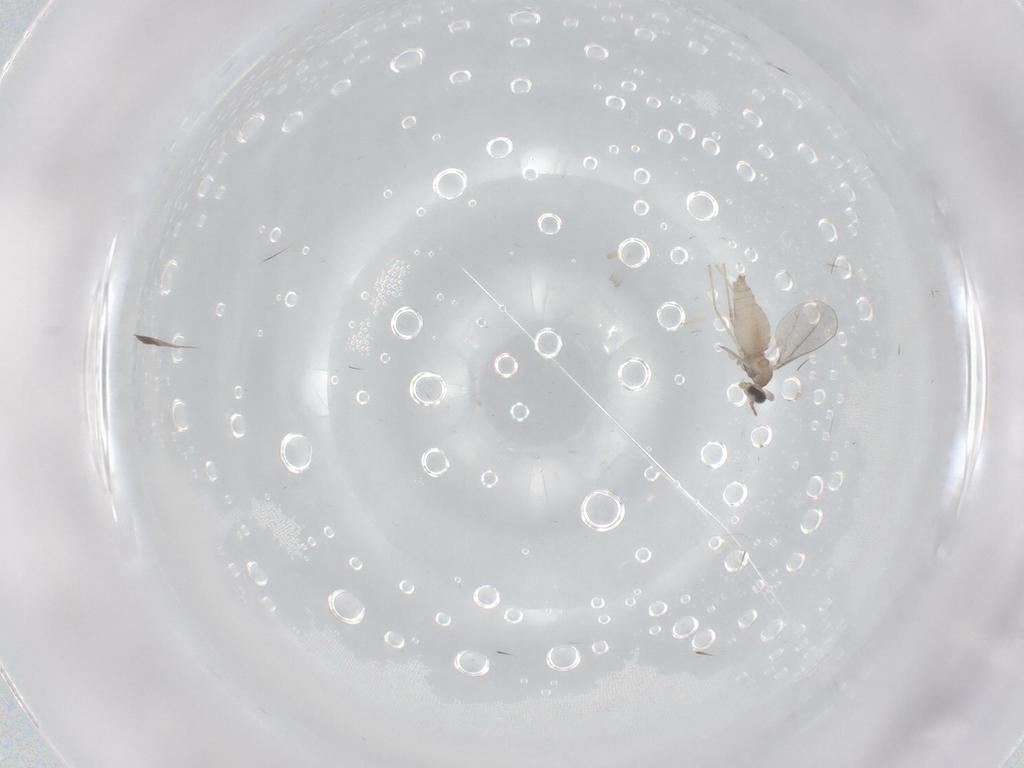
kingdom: Animalia
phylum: Arthropoda
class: Insecta
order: Diptera
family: Cecidomyiidae
